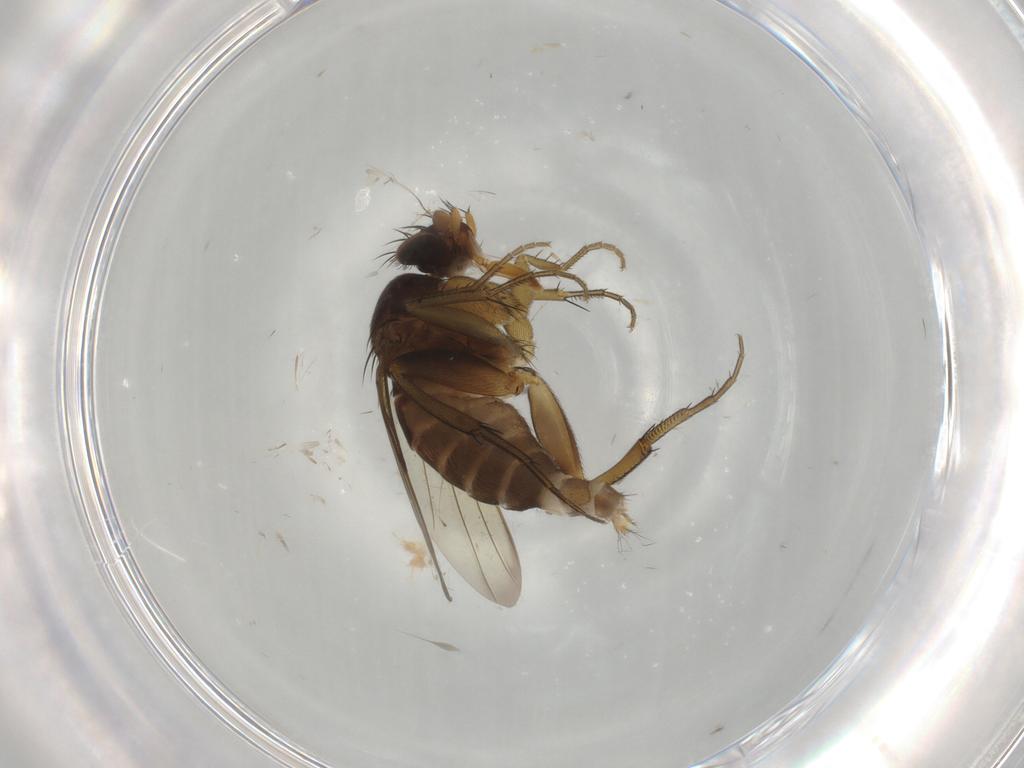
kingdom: Animalia
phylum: Arthropoda
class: Insecta
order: Diptera
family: Phoridae
